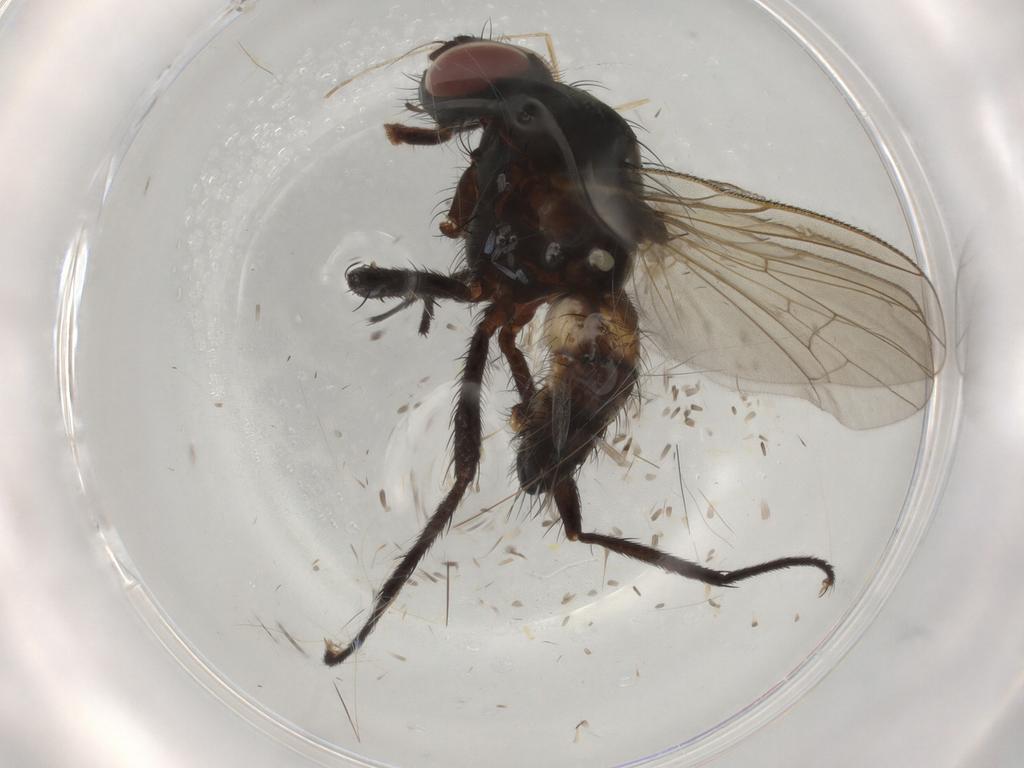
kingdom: Animalia
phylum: Arthropoda
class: Insecta
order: Diptera
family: Anthomyiidae
